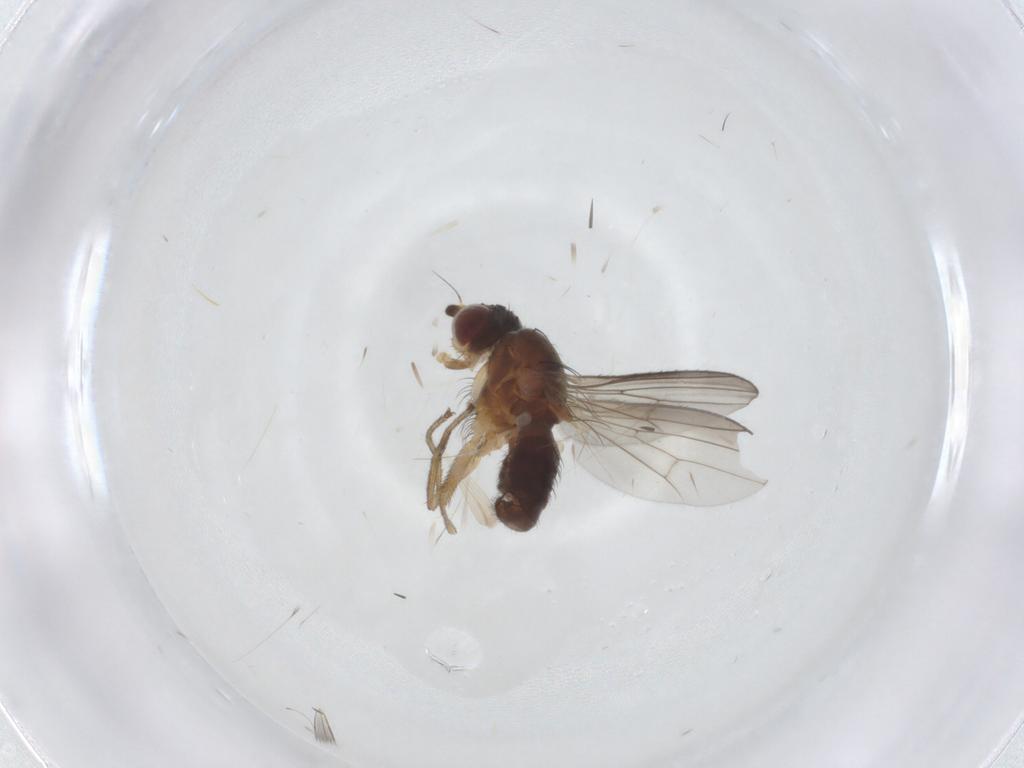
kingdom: Animalia
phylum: Arthropoda
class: Insecta
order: Diptera
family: Heleomyzidae
